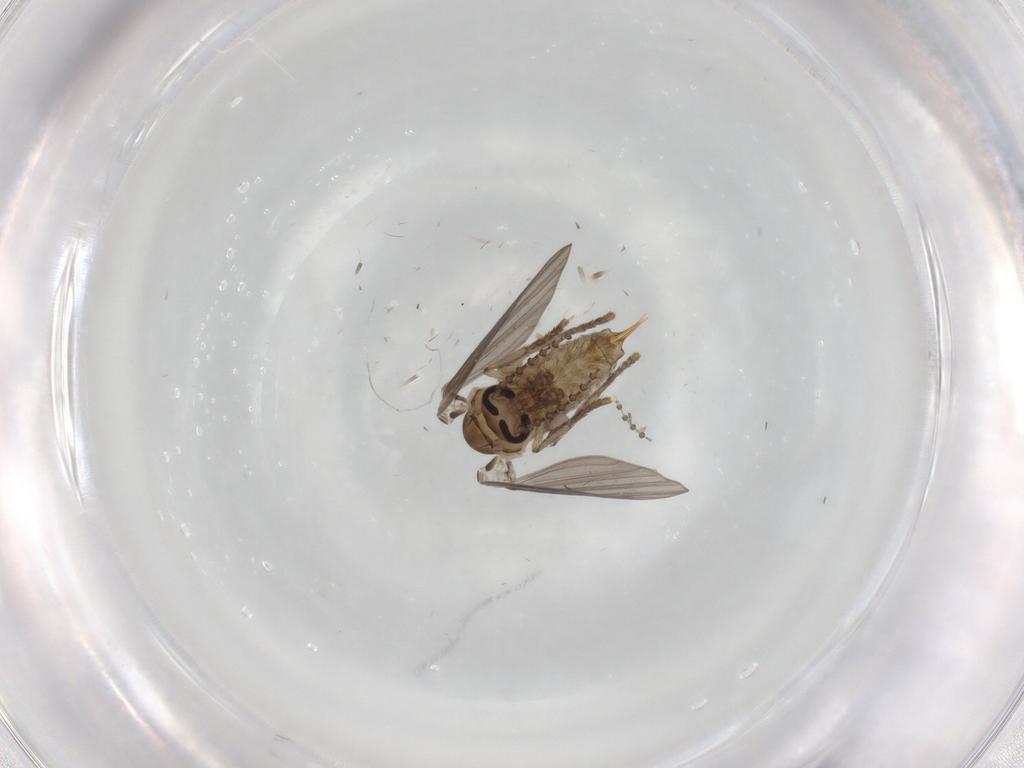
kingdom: Animalia
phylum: Arthropoda
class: Insecta
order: Diptera
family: Psychodidae
